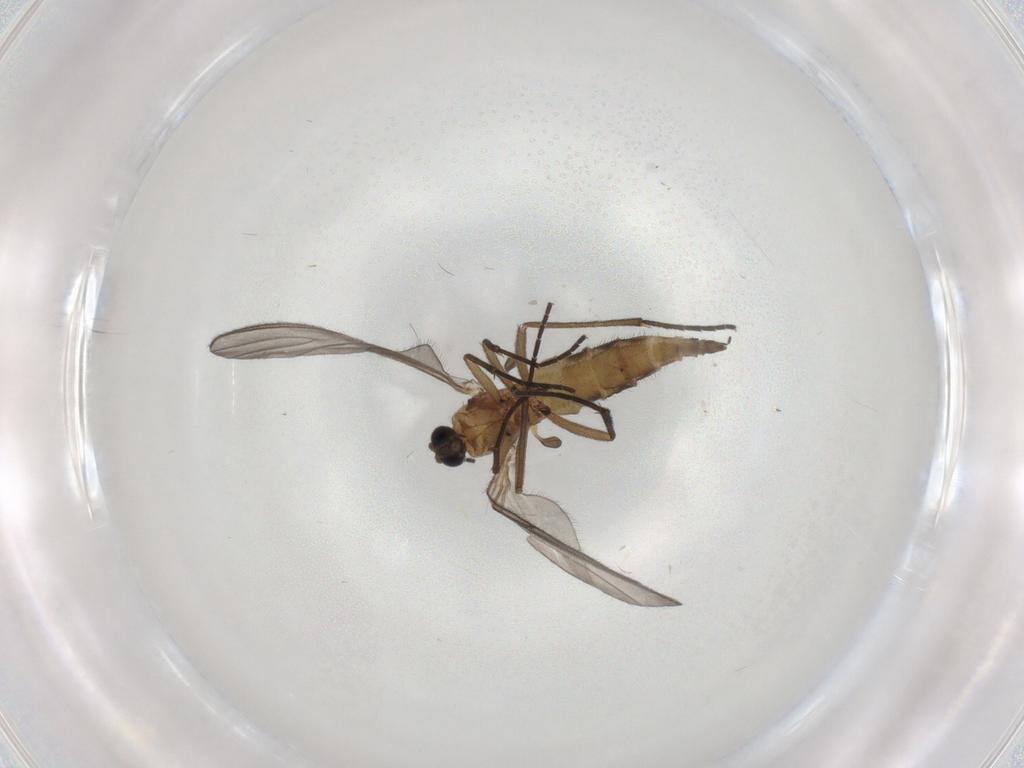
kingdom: Animalia
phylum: Arthropoda
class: Insecta
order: Diptera
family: Sciaridae
